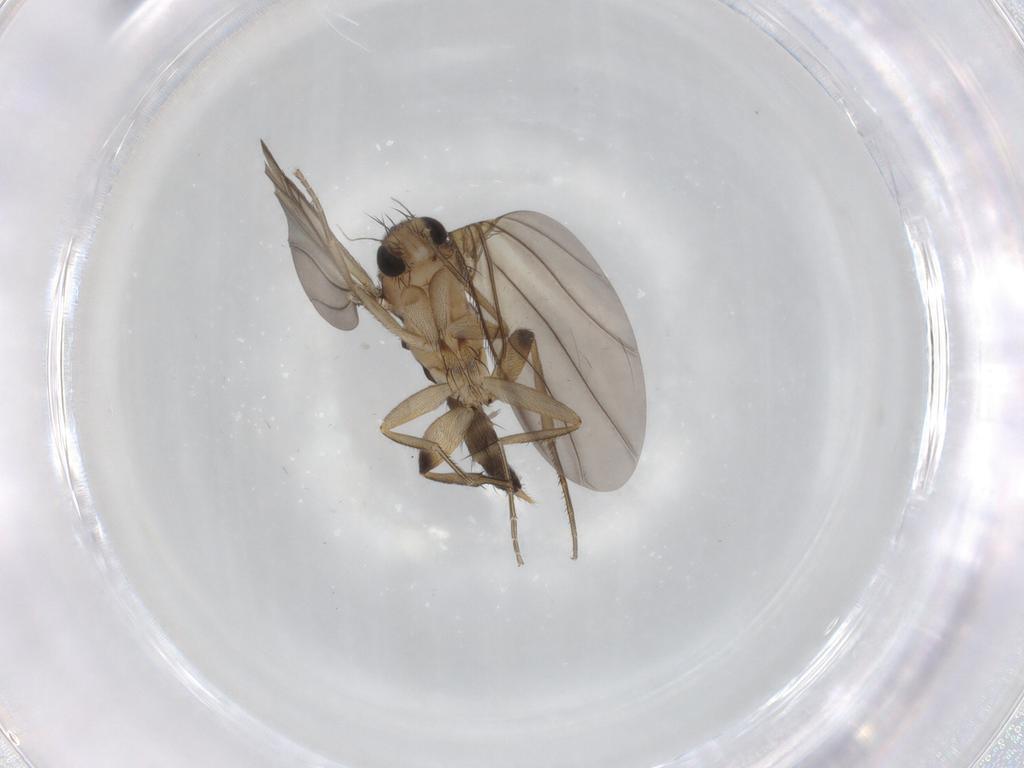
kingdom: Animalia
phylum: Arthropoda
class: Insecta
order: Diptera
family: Phoridae
